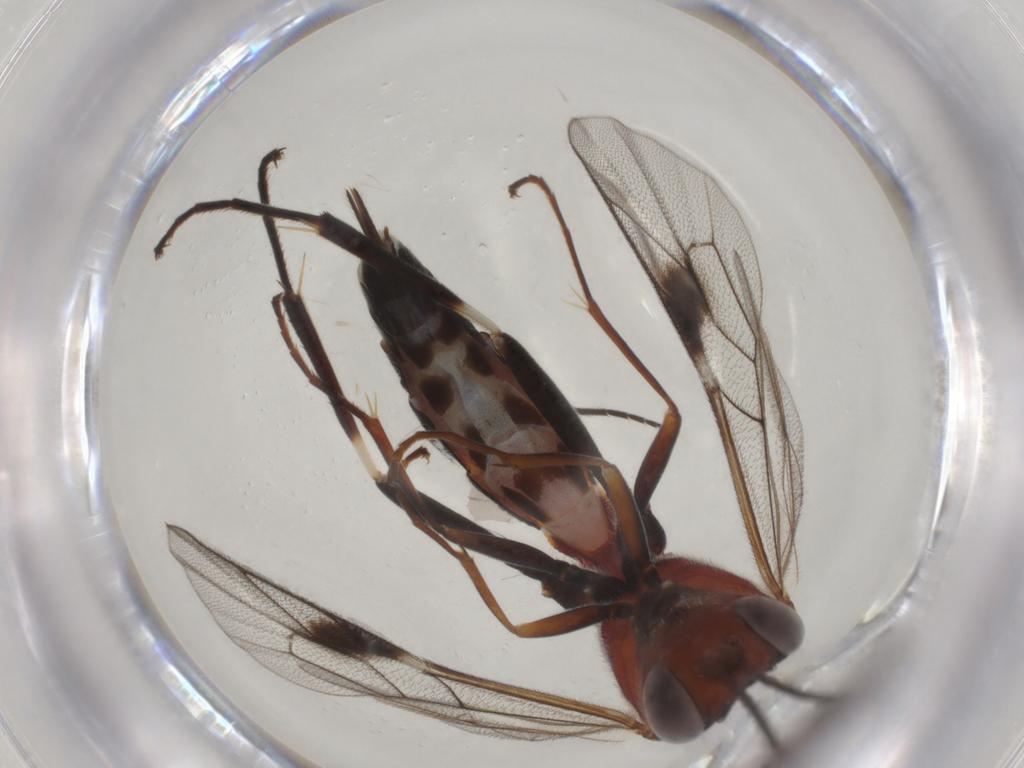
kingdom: Animalia
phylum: Arthropoda
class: Insecta
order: Hymenoptera
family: Ichneumonidae
